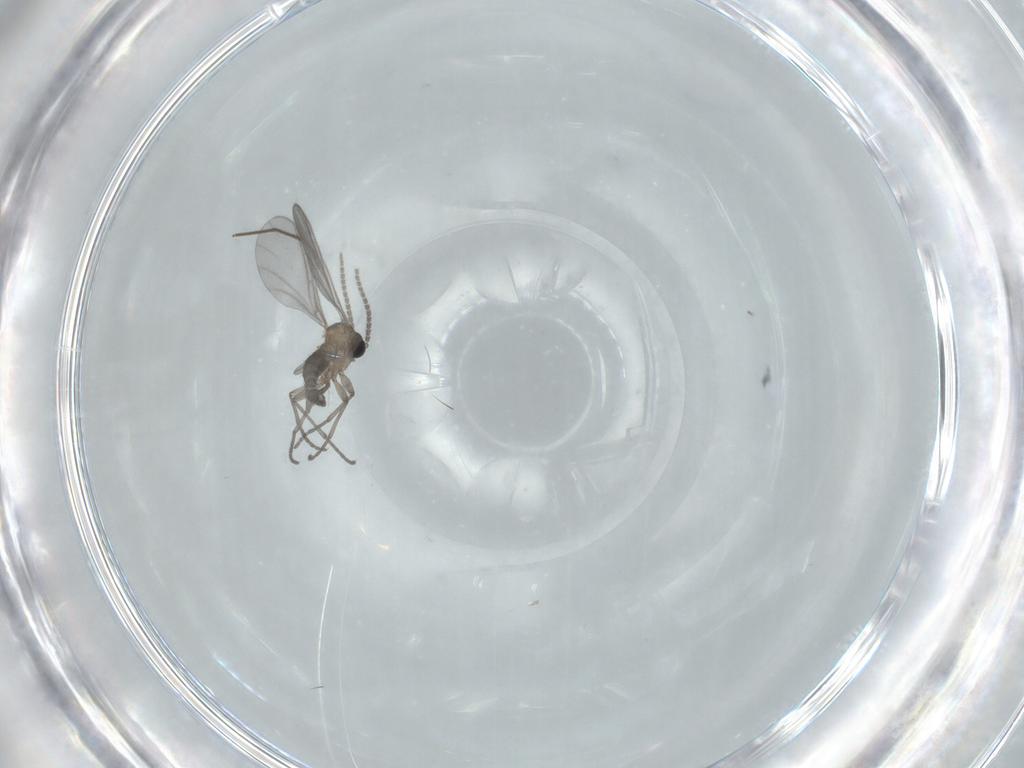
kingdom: Animalia
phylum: Arthropoda
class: Insecta
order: Diptera
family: Sciaridae
